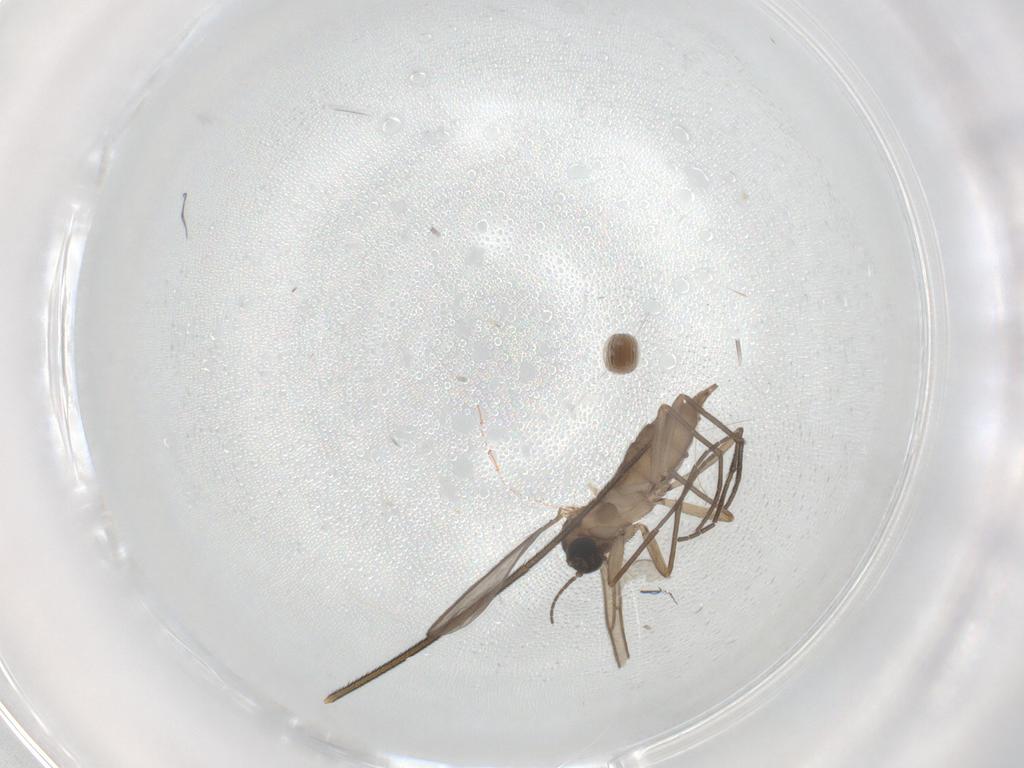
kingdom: Animalia
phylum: Arthropoda
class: Insecta
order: Diptera
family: Sciaridae
